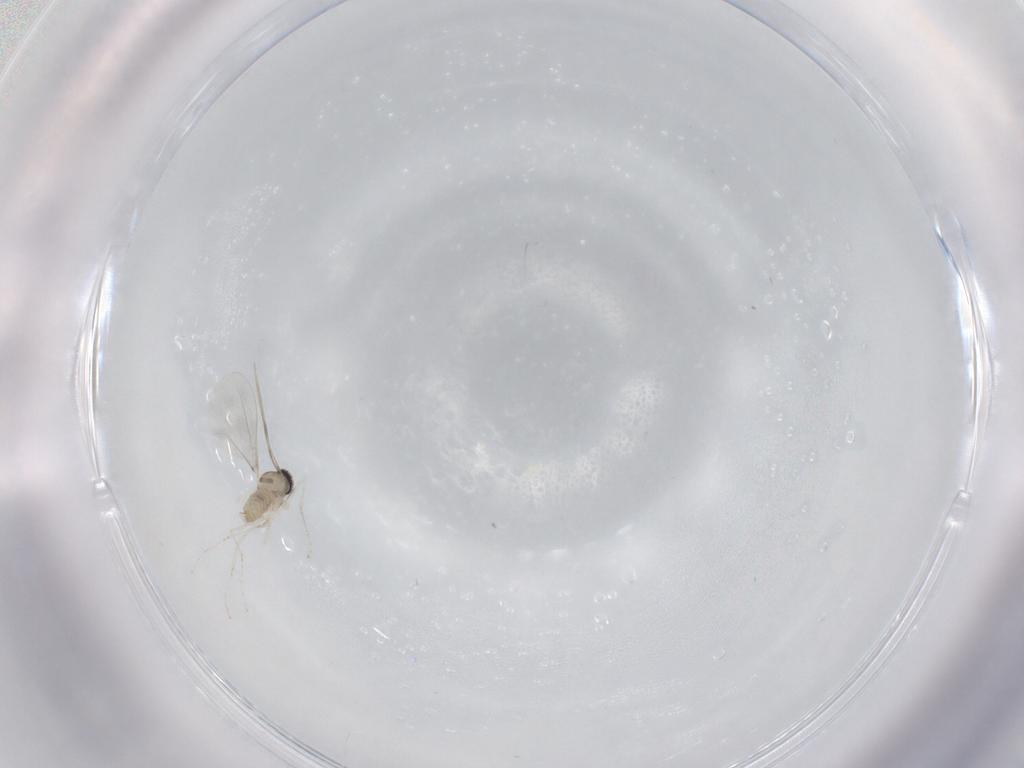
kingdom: Animalia
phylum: Arthropoda
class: Insecta
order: Diptera
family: Cecidomyiidae
